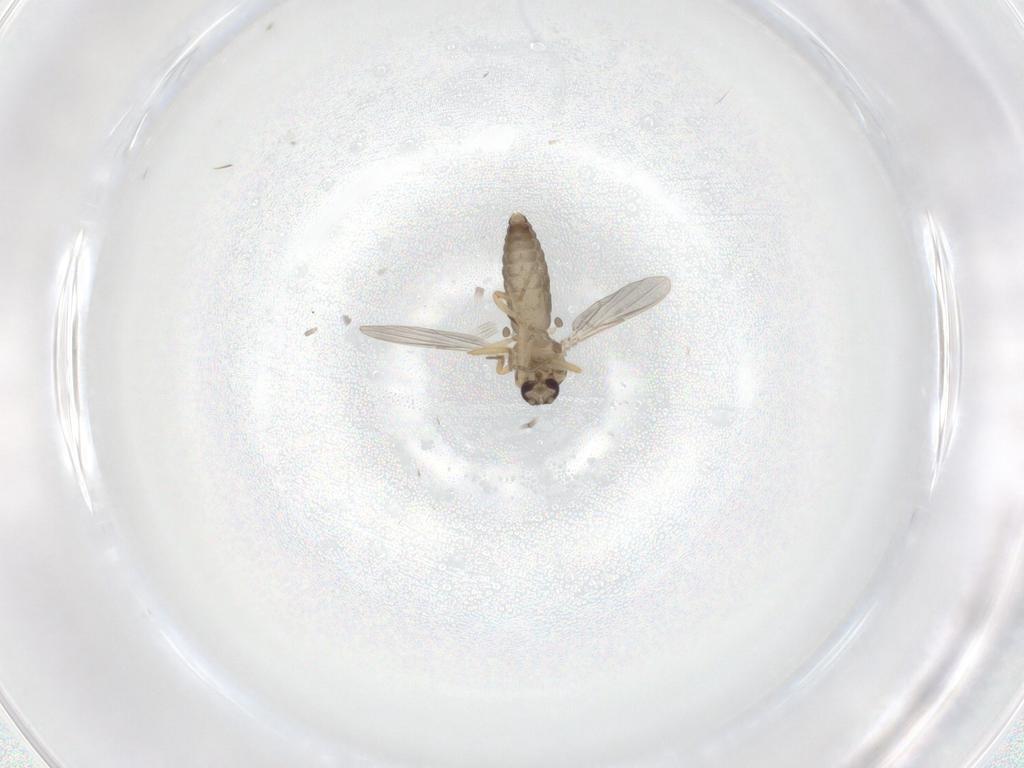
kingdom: Animalia
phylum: Arthropoda
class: Insecta
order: Diptera
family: Ceratopogonidae
